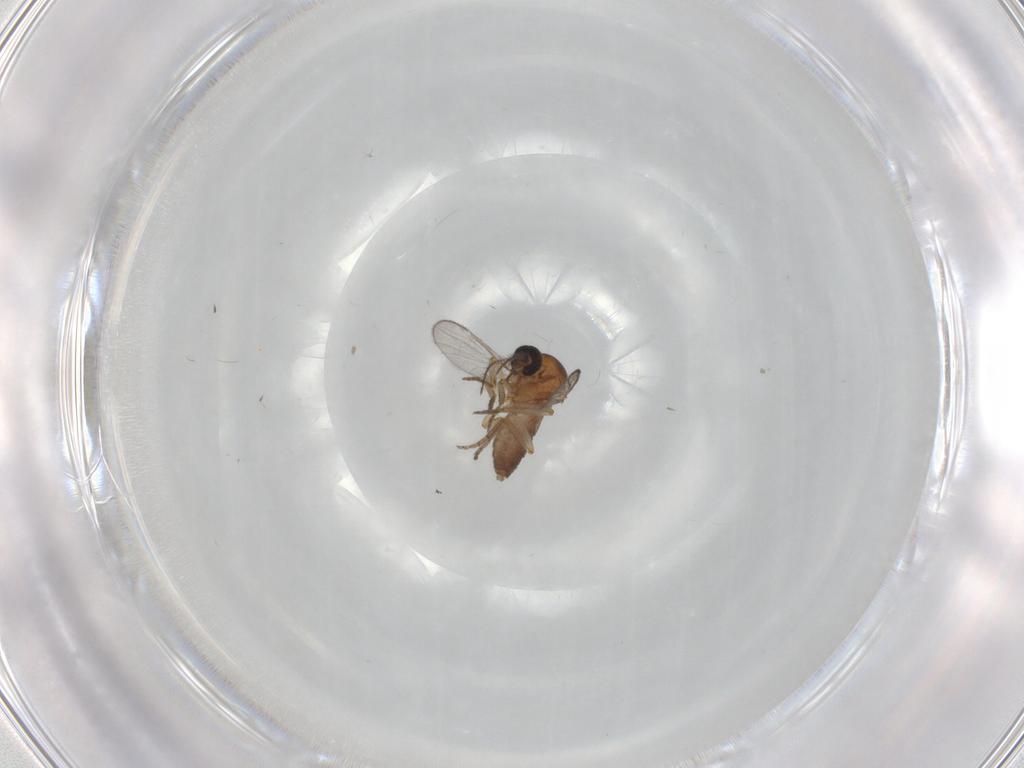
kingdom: Animalia
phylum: Arthropoda
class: Insecta
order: Diptera
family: Ceratopogonidae
